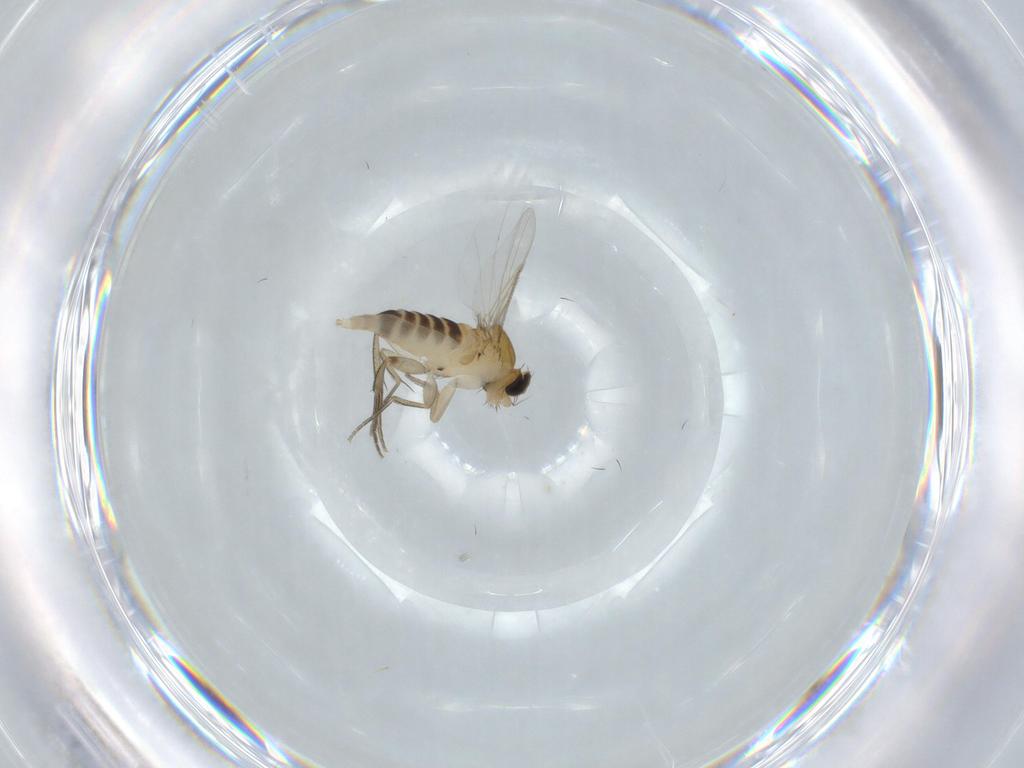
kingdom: Animalia
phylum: Arthropoda
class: Insecta
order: Diptera
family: Phoridae
